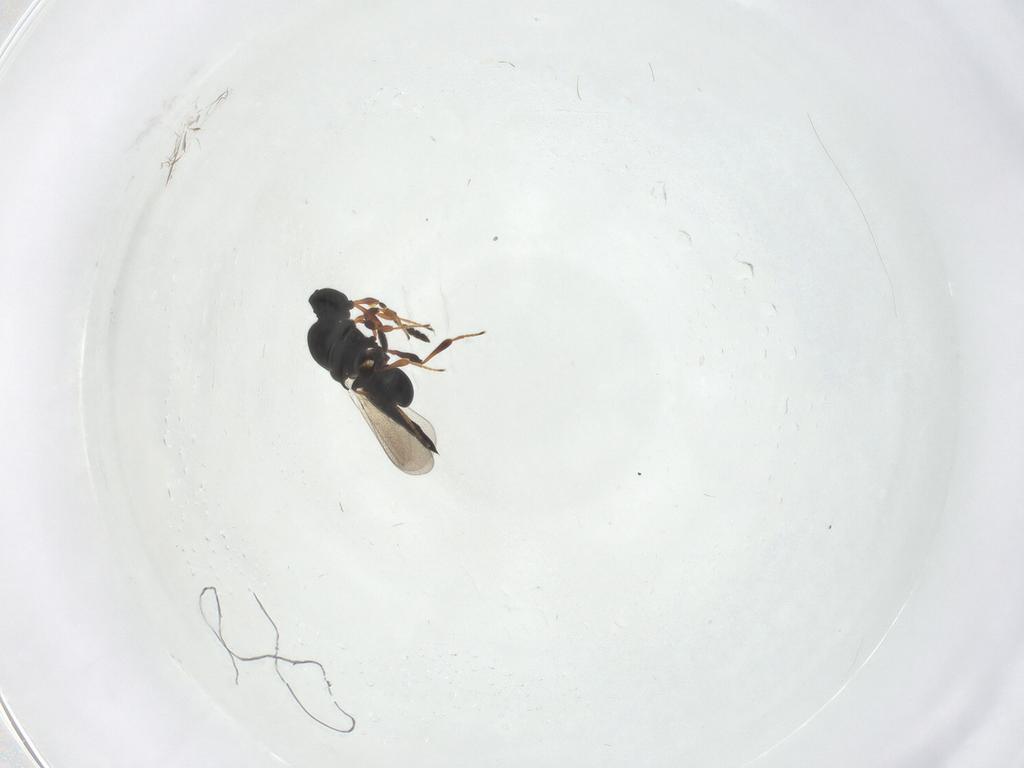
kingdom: Animalia
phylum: Arthropoda
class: Insecta
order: Hymenoptera
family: Platygastridae
